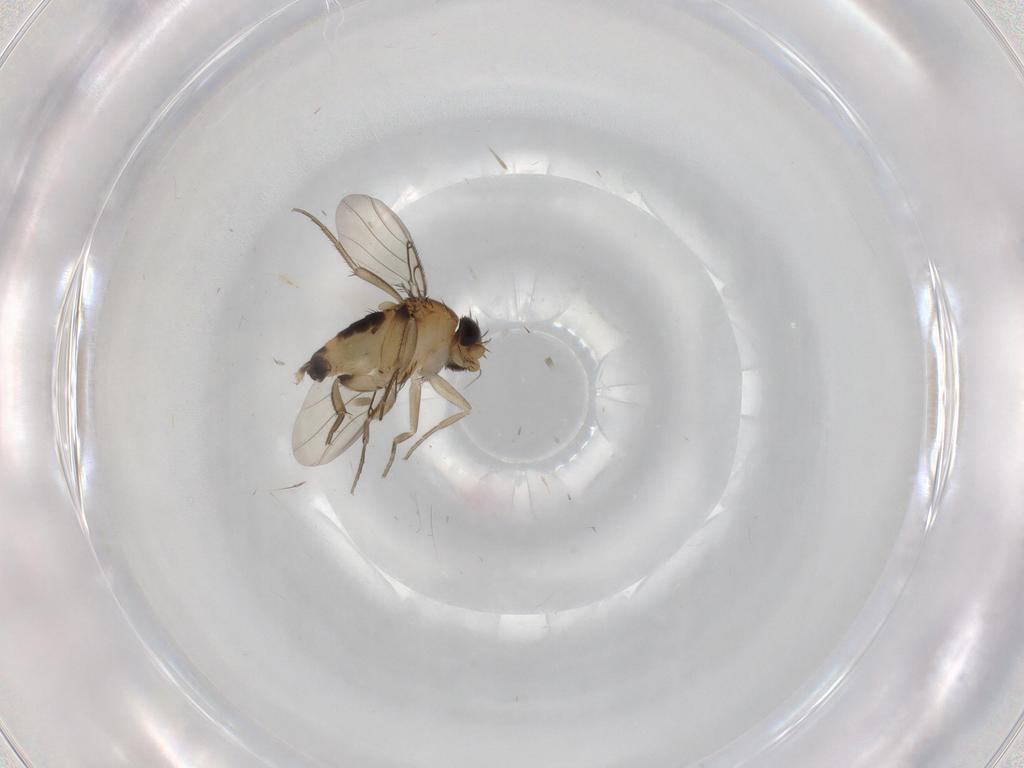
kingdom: Animalia
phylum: Arthropoda
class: Insecta
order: Diptera
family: Phoridae
